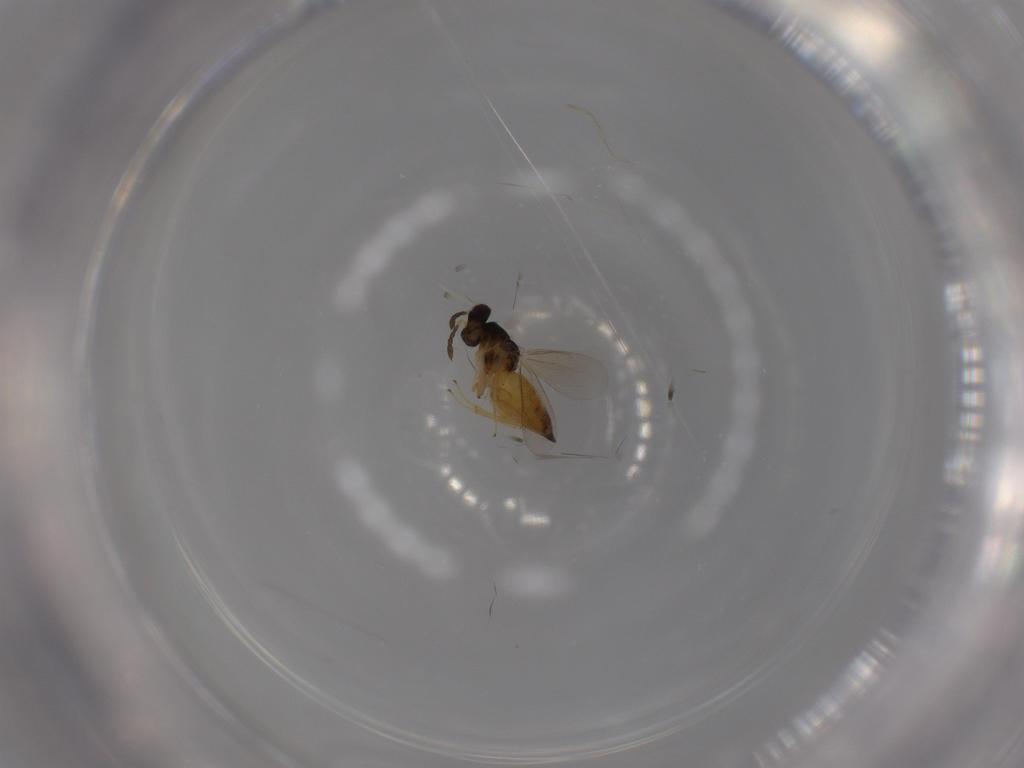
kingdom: Animalia
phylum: Arthropoda
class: Insecta
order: Hymenoptera
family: Eulophidae
